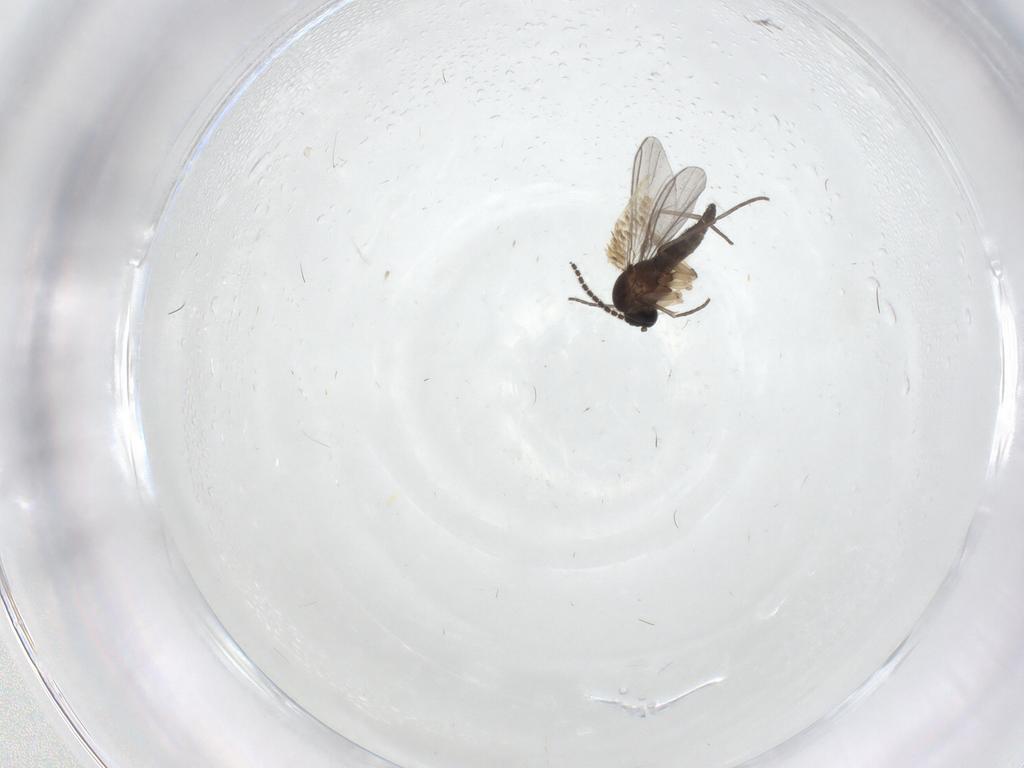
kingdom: Animalia
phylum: Arthropoda
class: Insecta
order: Diptera
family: Sciaridae
